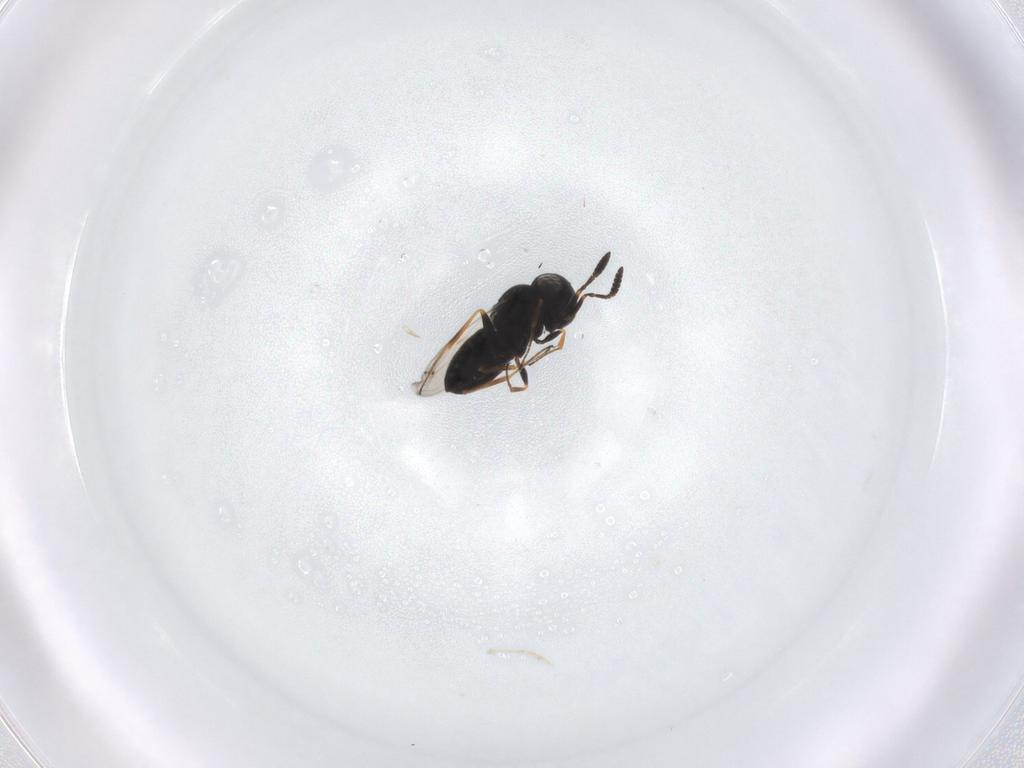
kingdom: Animalia
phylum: Arthropoda
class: Insecta
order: Hymenoptera
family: Scelionidae
